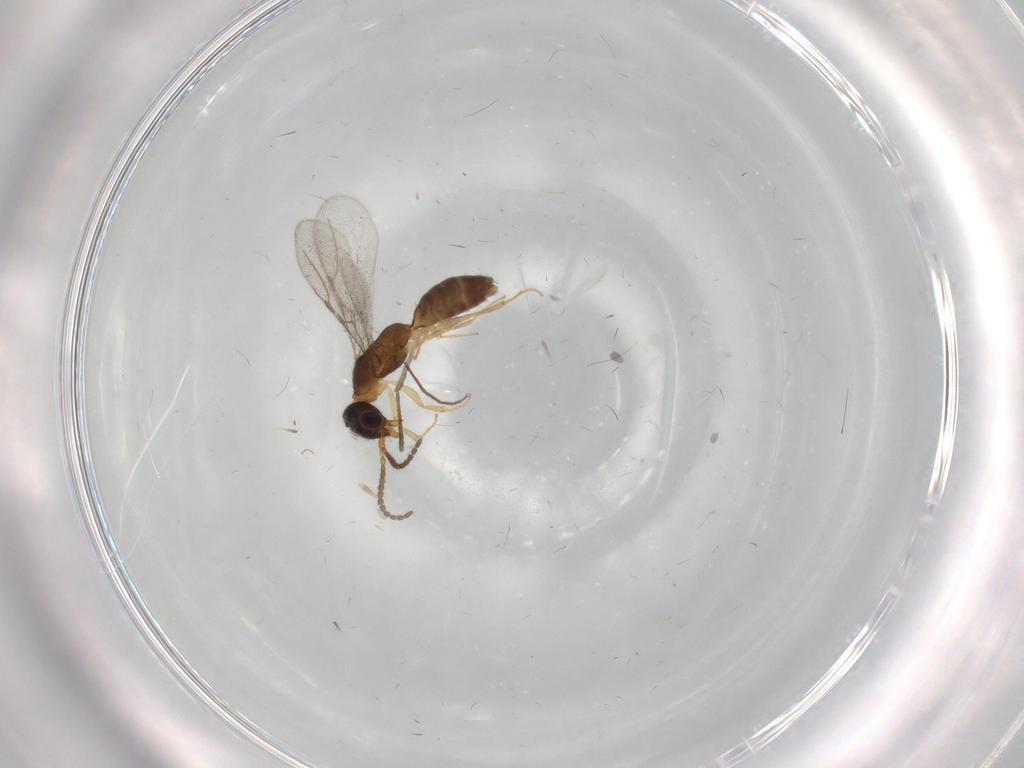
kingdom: Animalia
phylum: Arthropoda
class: Insecta
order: Hymenoptera
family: Bethylidae
